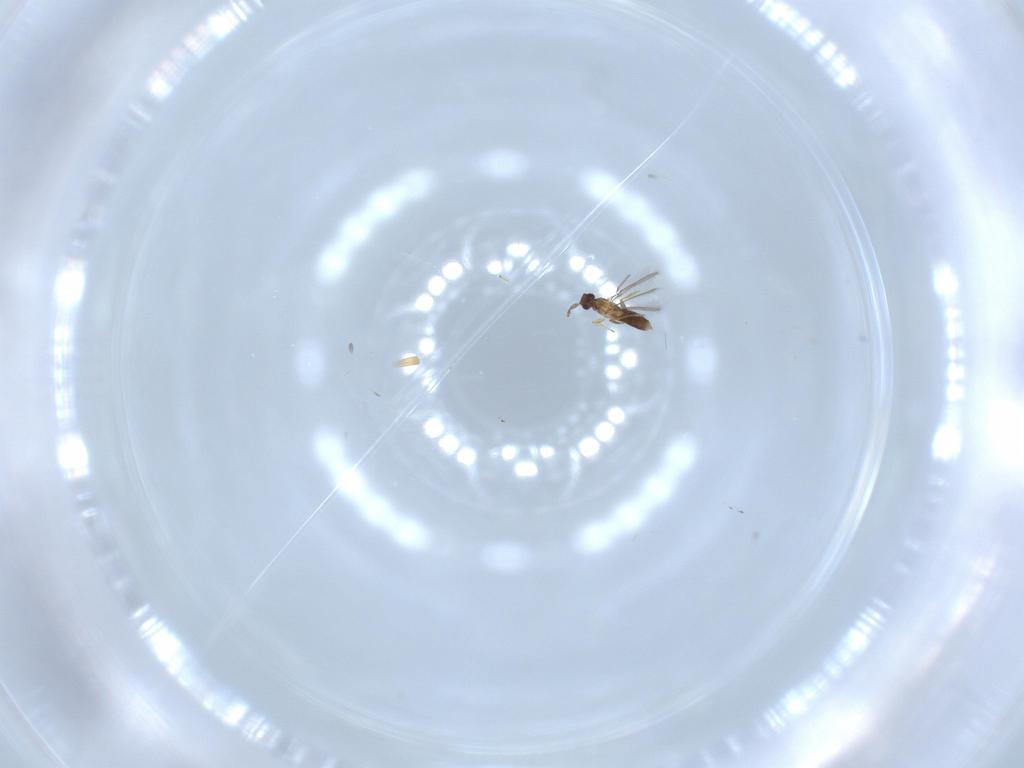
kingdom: Animalia
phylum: Arthropoda
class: Insecta
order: Hymenoptera
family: Mymaridae
